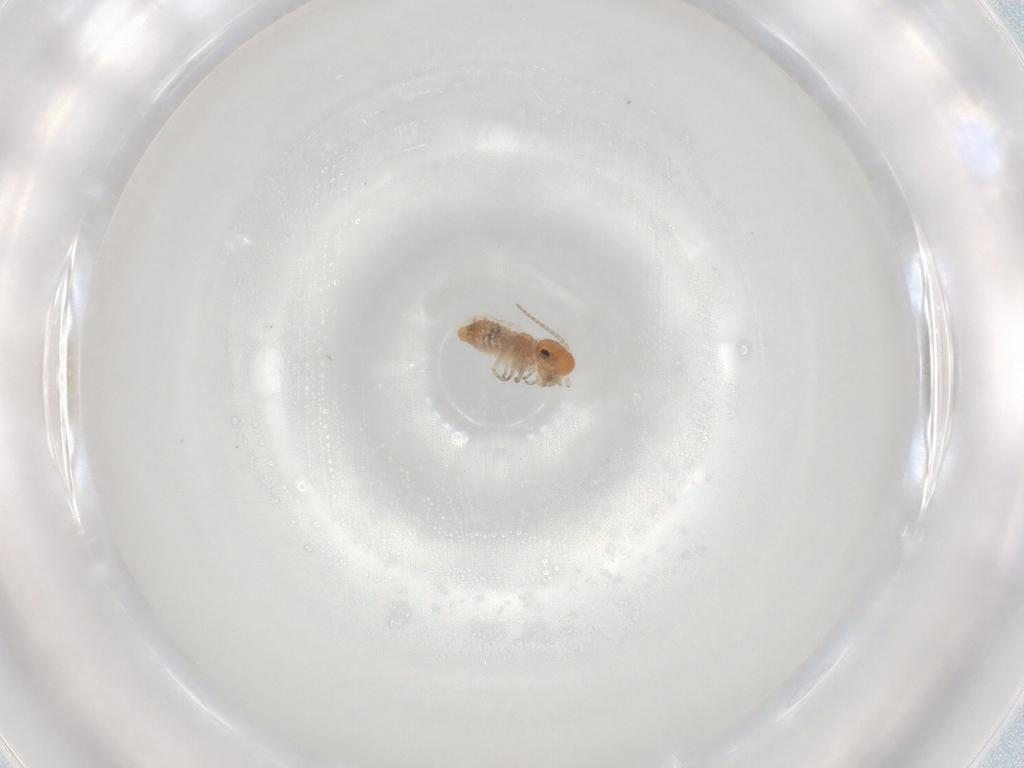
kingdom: Animalia
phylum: Arthropoda
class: Insecta
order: Psocodea
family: Caeciliusidae
